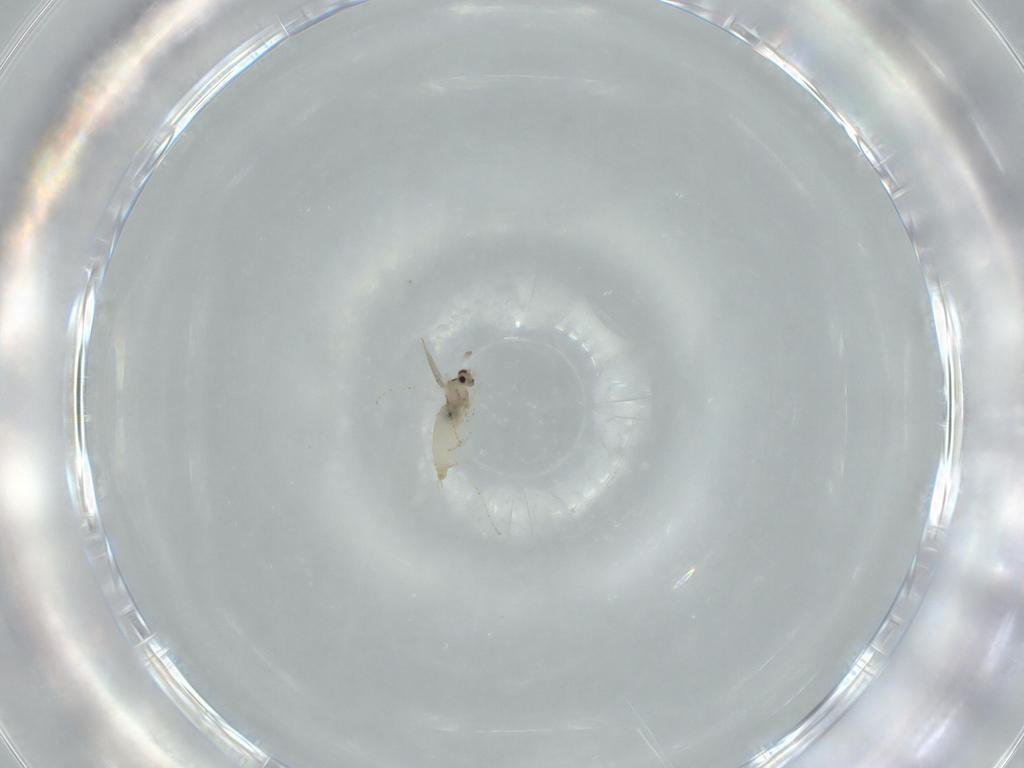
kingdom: Animalia
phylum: Arthropoda
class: Insecta
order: Diptera
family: Cecidomyiidae
